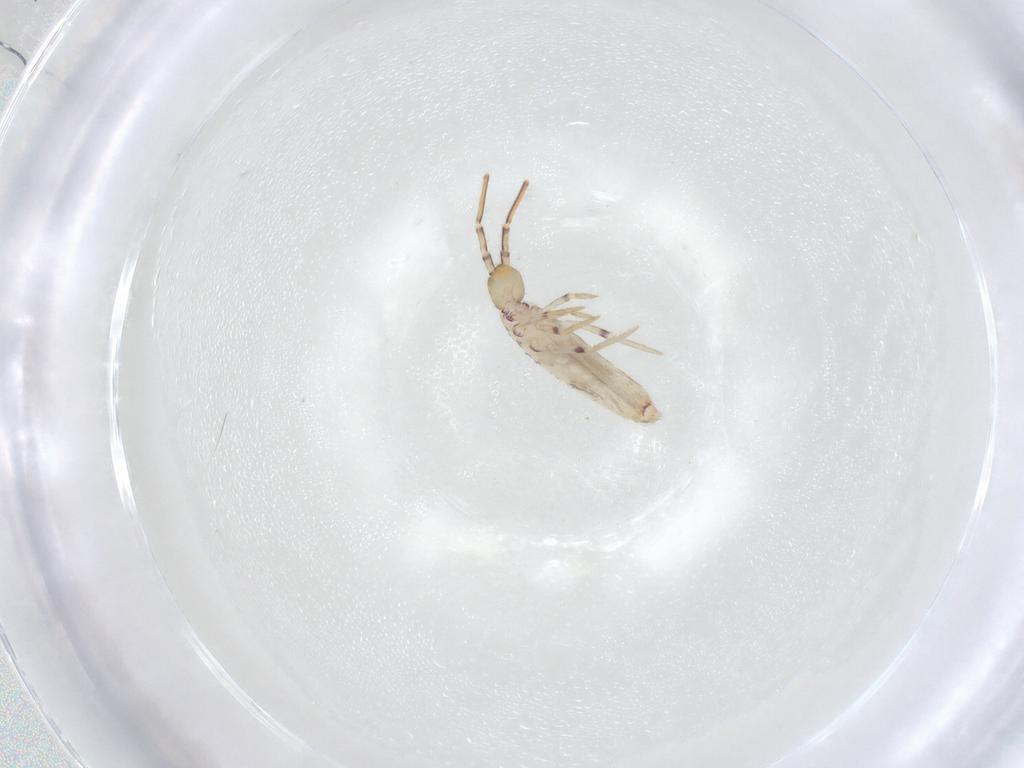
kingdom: Animalia
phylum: Arthropoda
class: Collembola
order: Entomobryomorpha
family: Entomobryidae
